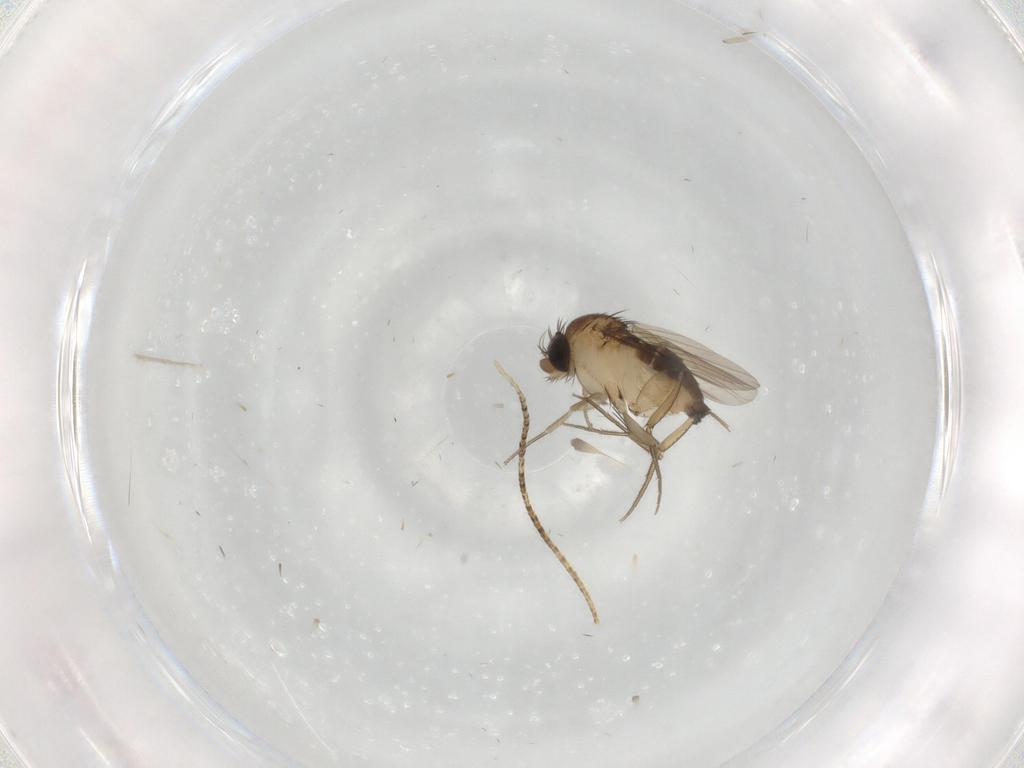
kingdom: Animalia
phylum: Arthropoda
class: Insecta
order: Diptera
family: Phoridae
